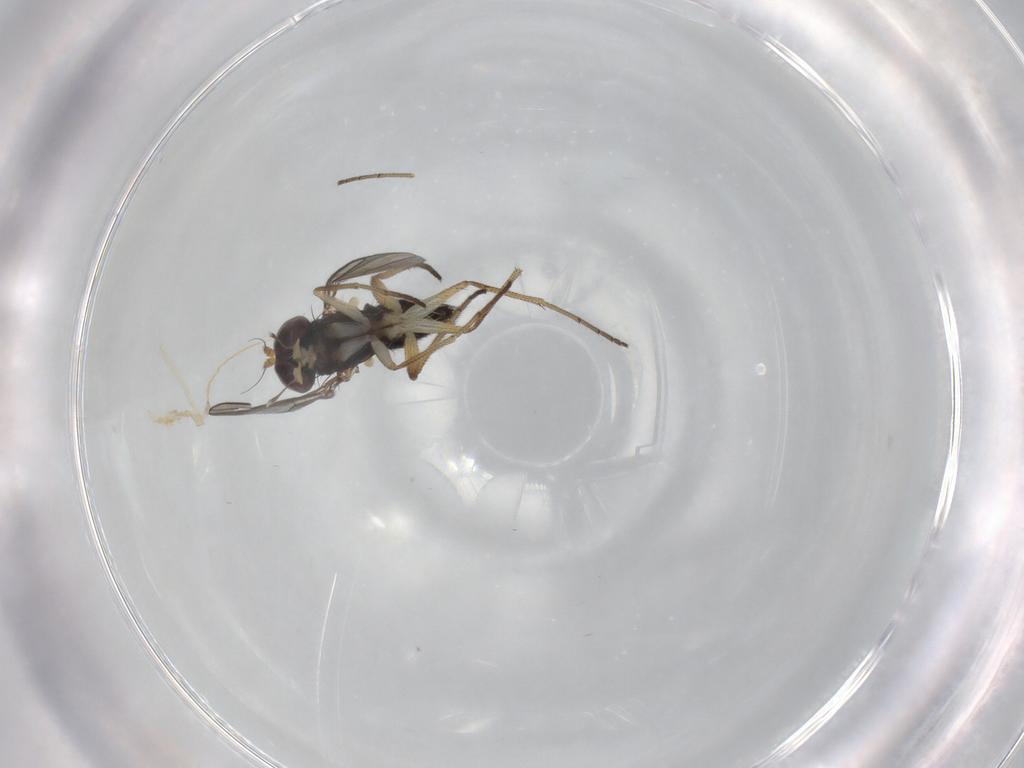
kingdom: Animalia
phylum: Arthropoda
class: Insecta
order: Diptera
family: Dolichopodidae
